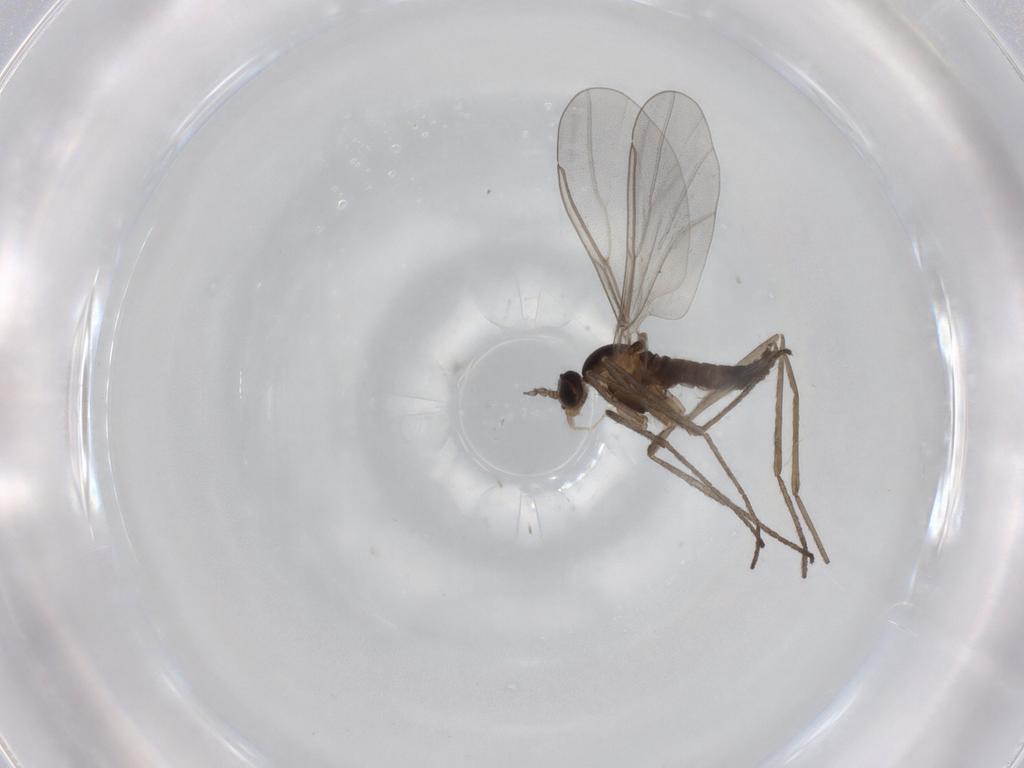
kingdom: Animalia
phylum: Arthropoda
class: Insecta
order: Diptera
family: Cecidomyiidae
